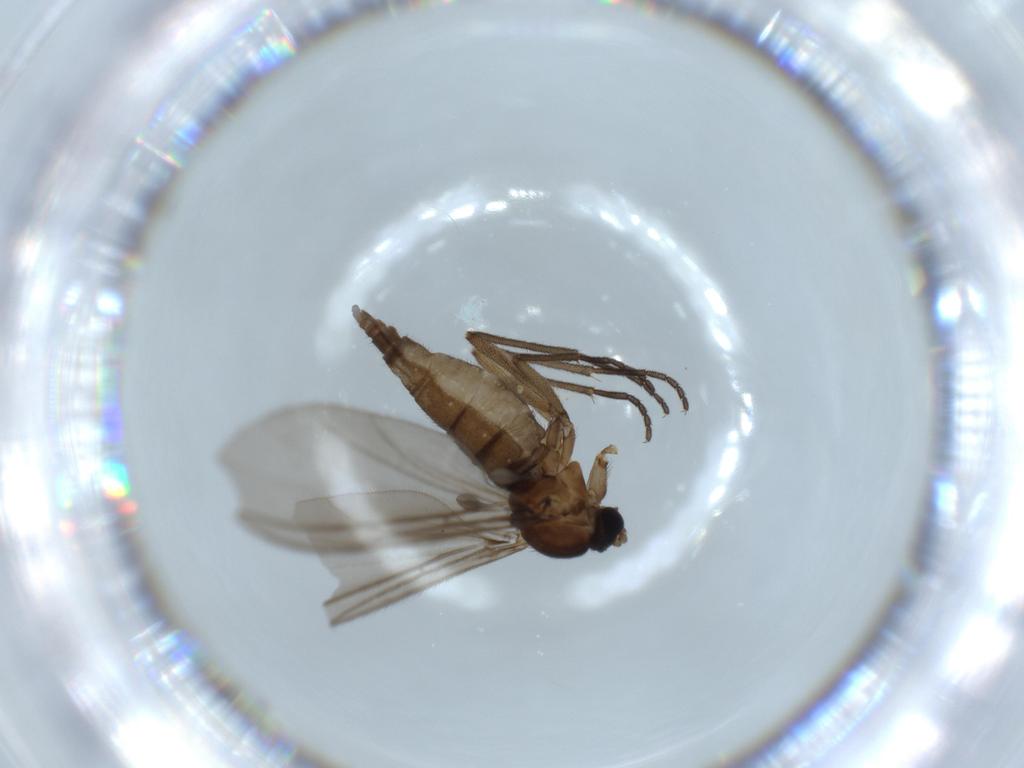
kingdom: Animalia
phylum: Arthropoda
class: Insecta
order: Diptera
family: Sciaridae
